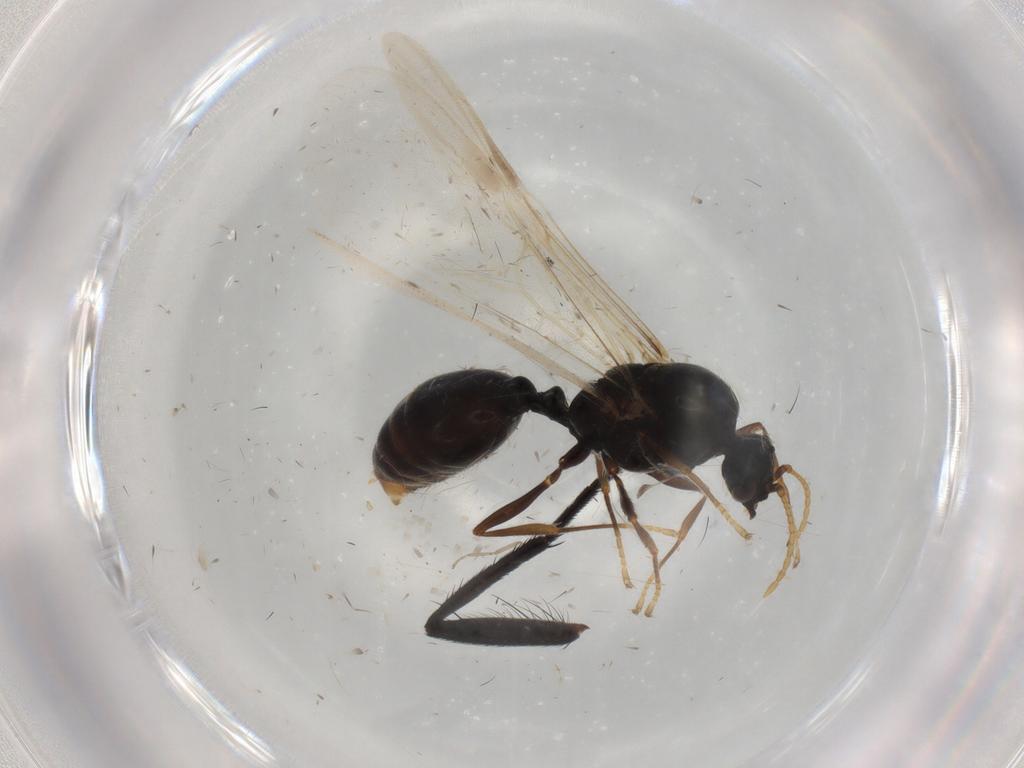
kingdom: Animalia
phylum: Arthropoda
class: Insecta
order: Hymenoptera
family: Formicidae
